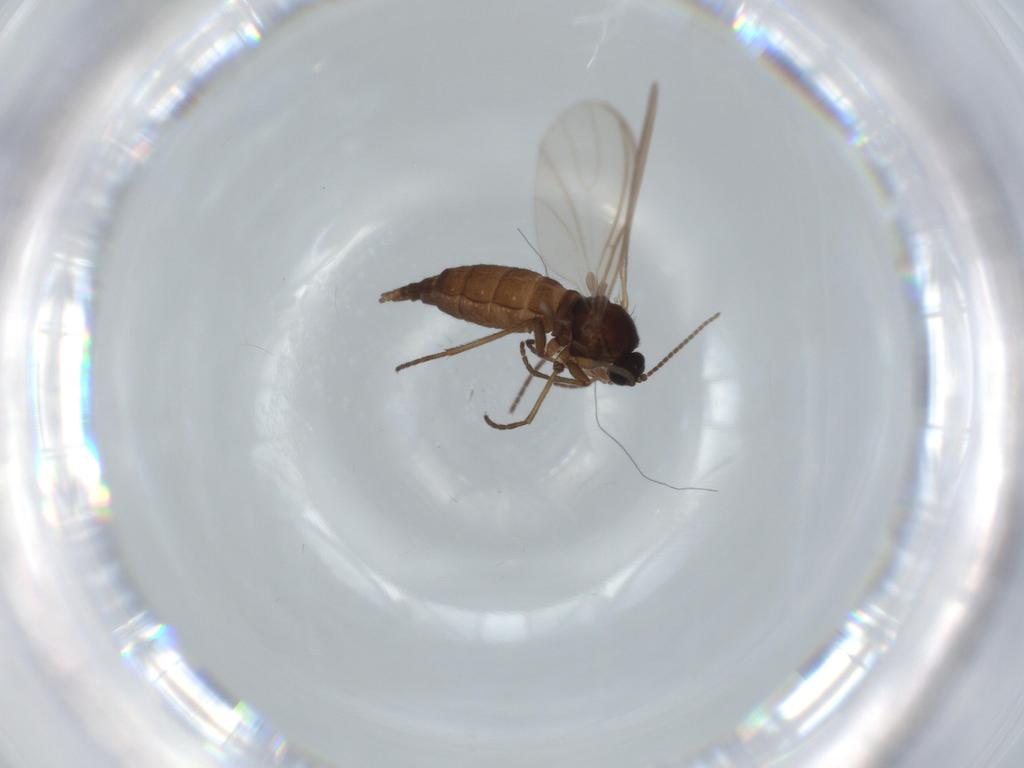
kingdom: Animalia
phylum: Arthropoda
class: Insecta
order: Diptera
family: Sciaridae
